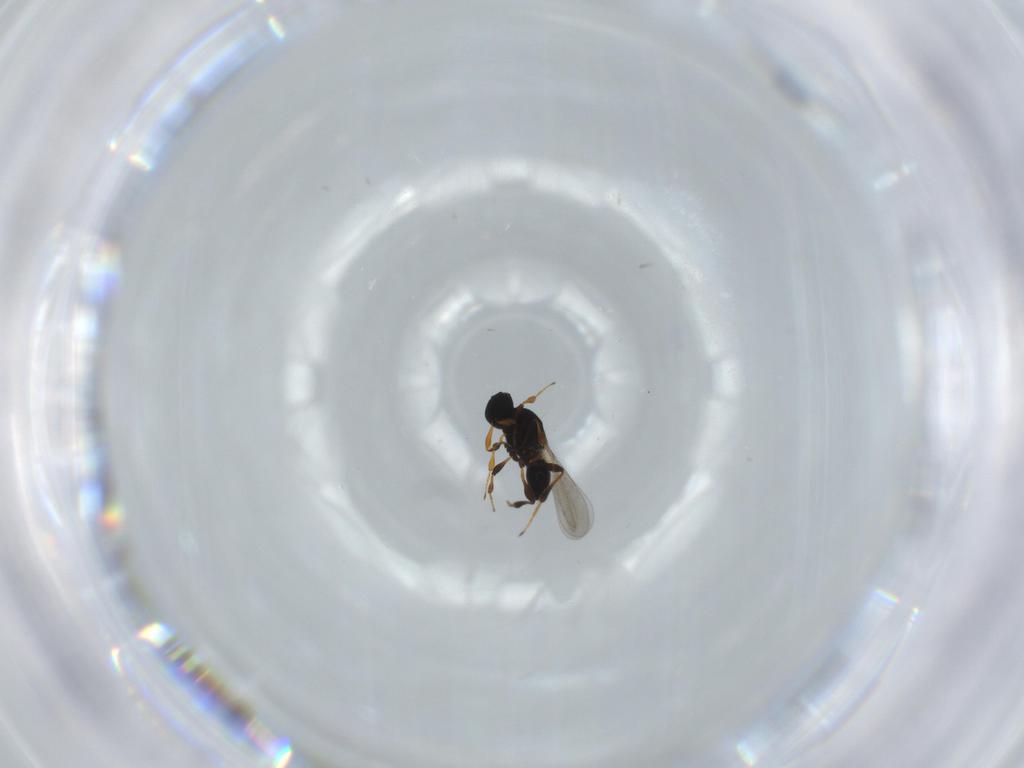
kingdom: Animalia
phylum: Arthropoda
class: Insecta
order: Hymenoptera
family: Platygastridae
